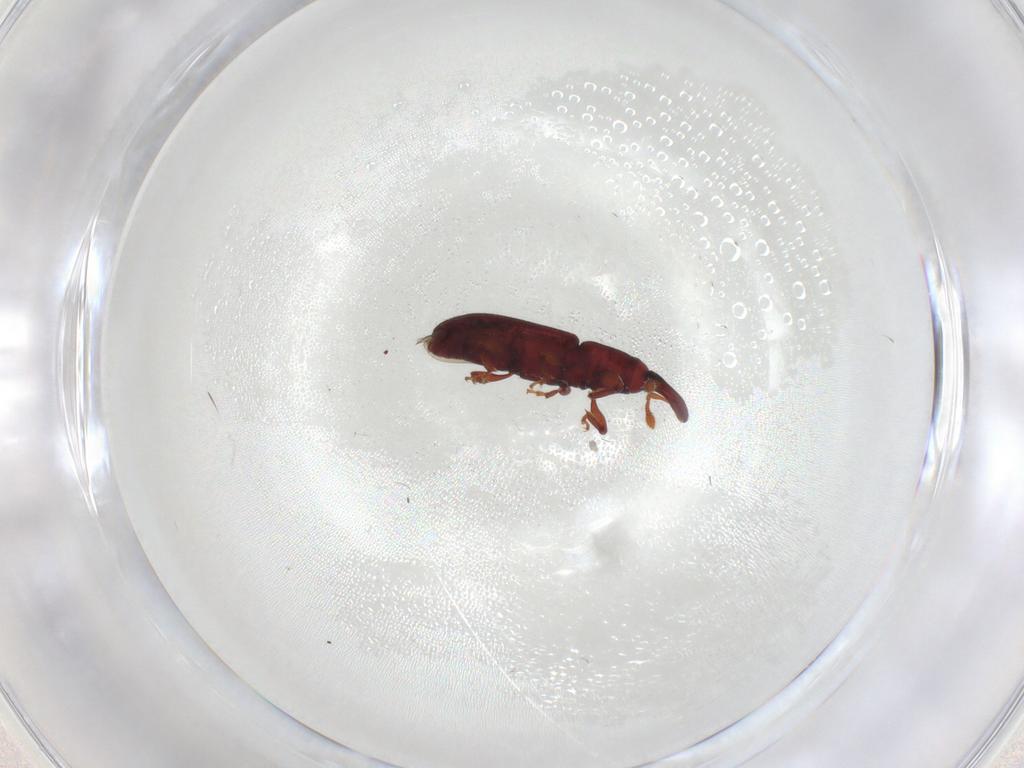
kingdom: Animalia
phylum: Arthropoda
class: Insecta
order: Coleoptera
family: Curculionidae
